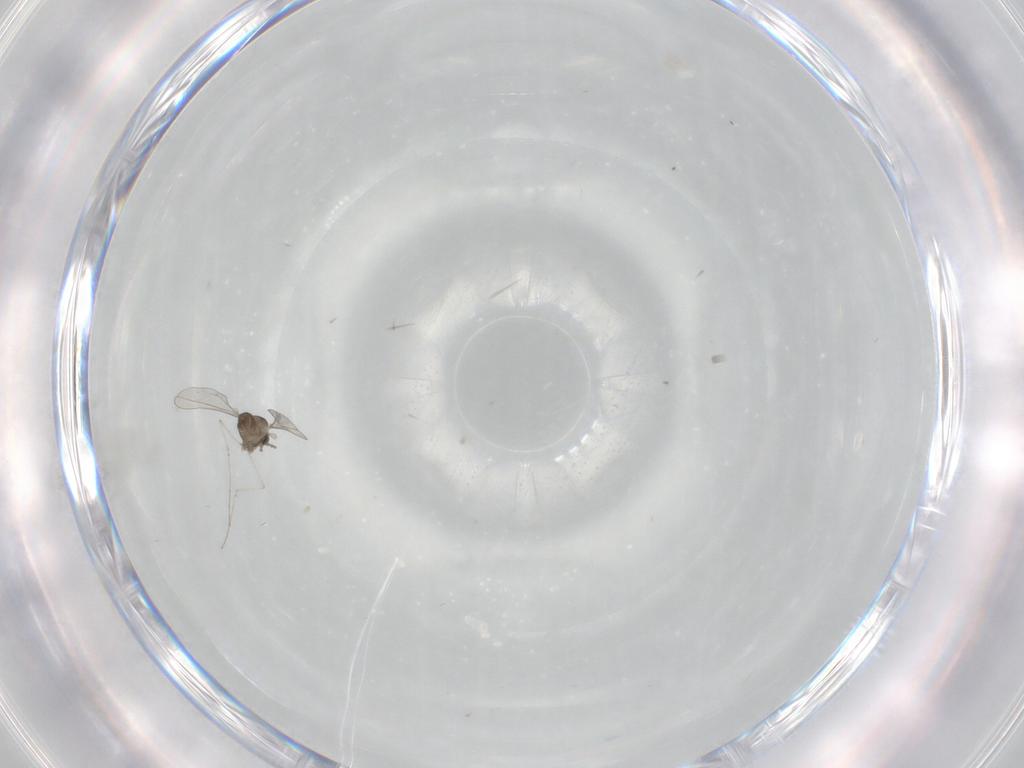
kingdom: Animalia
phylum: Arthropoda
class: Insecta
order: Diptera
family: Cecidomyiidae
